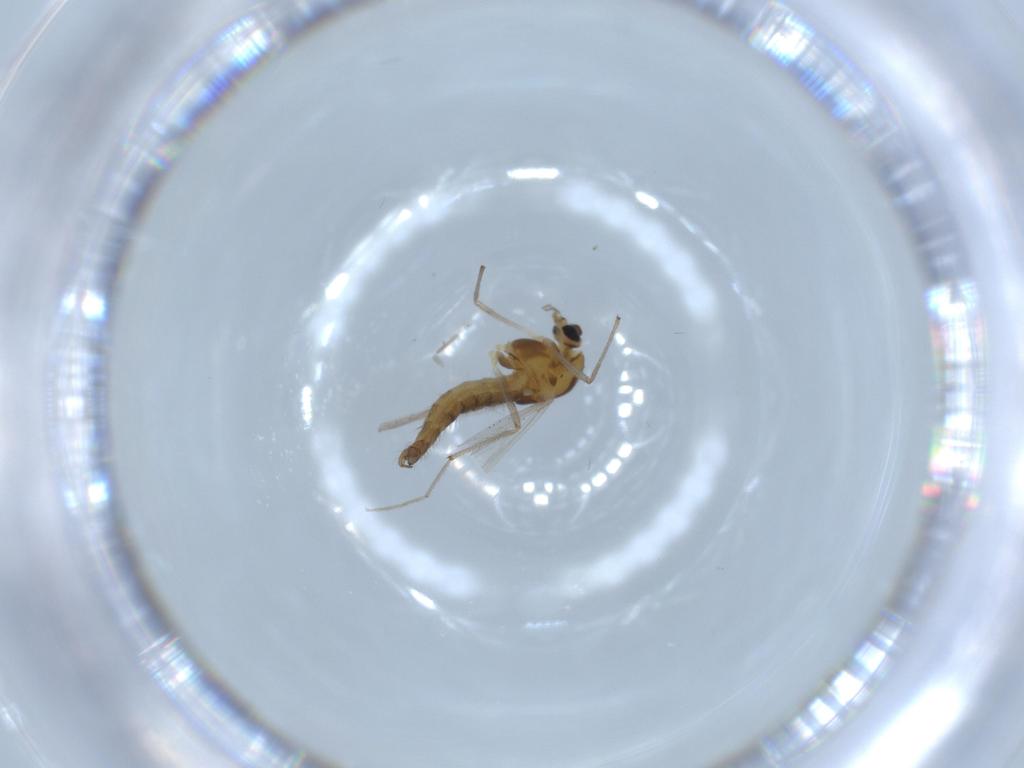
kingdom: Animalia
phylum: Arthropoda
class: Insecta
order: Diptera
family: Chironomidae
